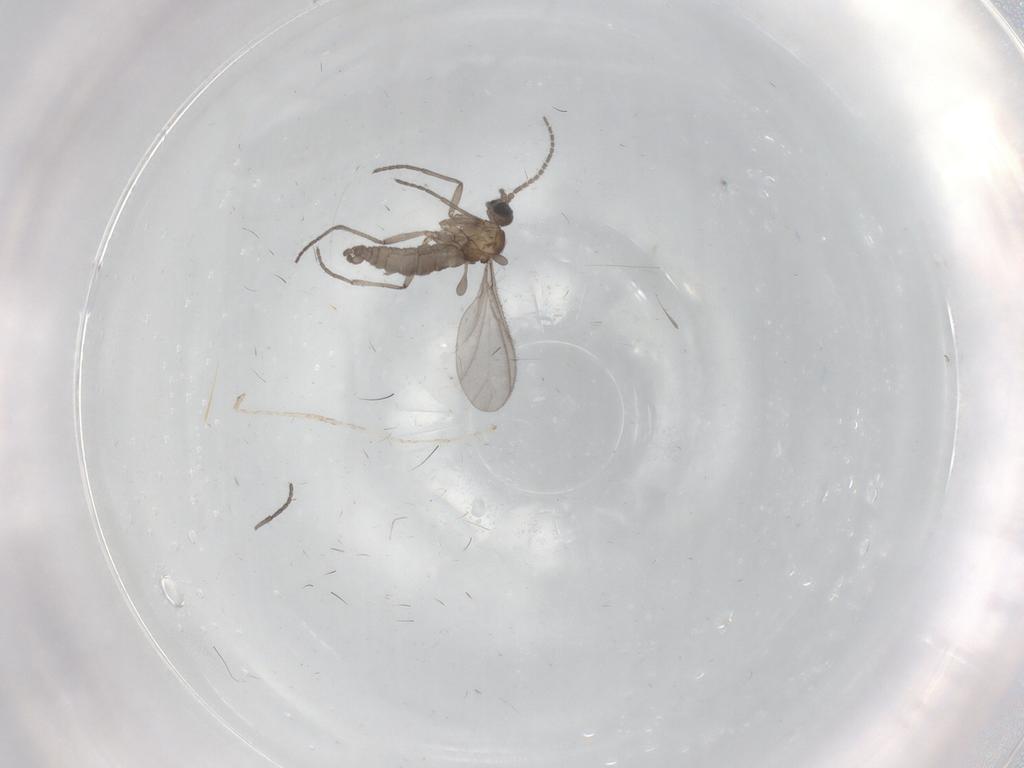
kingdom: Animalia
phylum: Arthropoda
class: Insecta
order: Diptera
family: Sciaridae
